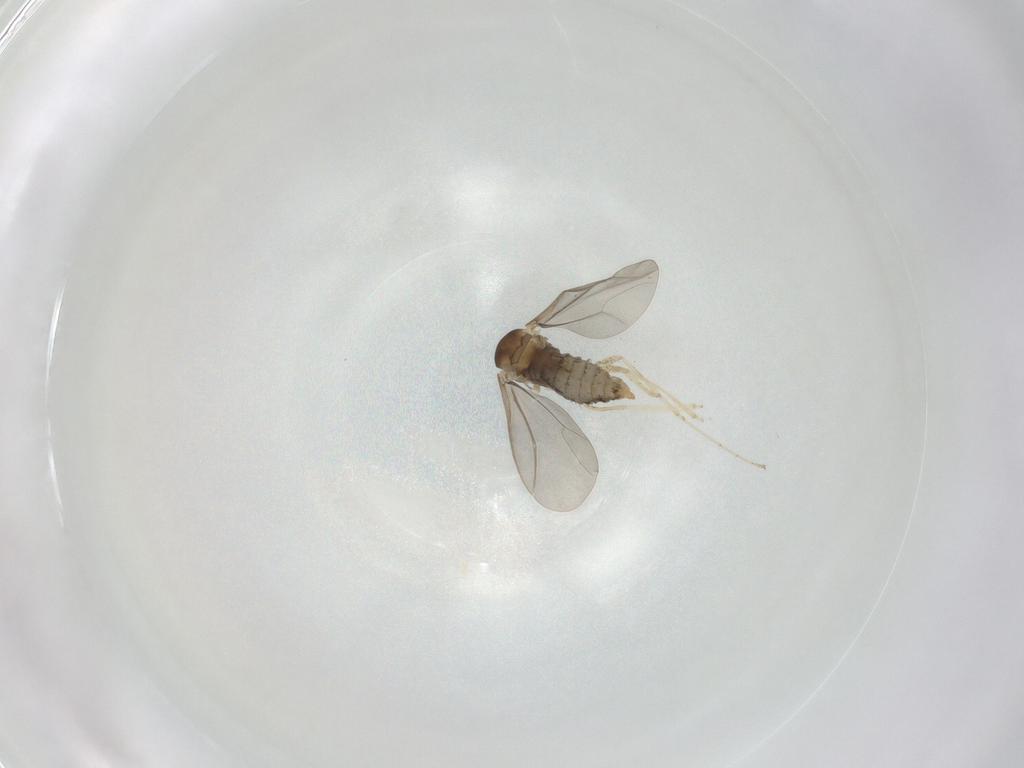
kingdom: Animalia
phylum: Arthropoda
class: Insecta
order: Diptera
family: Cecidomyiidae
